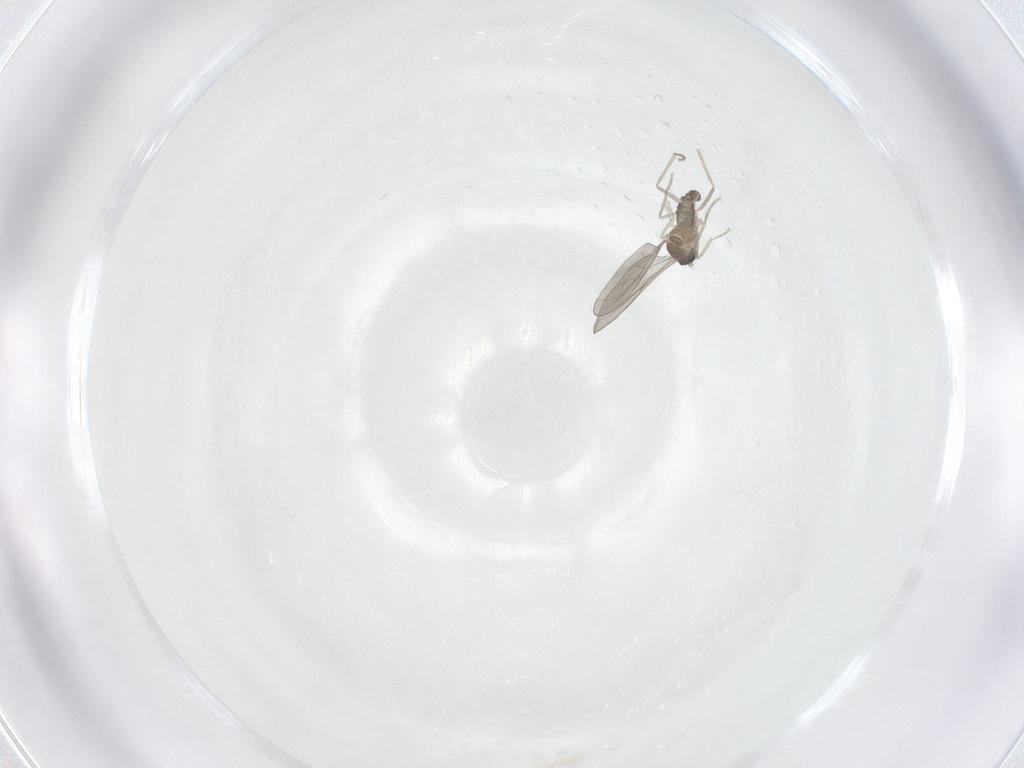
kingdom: Animalia
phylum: Arthropoda
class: Insecta
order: Diptera
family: Chironomidae
